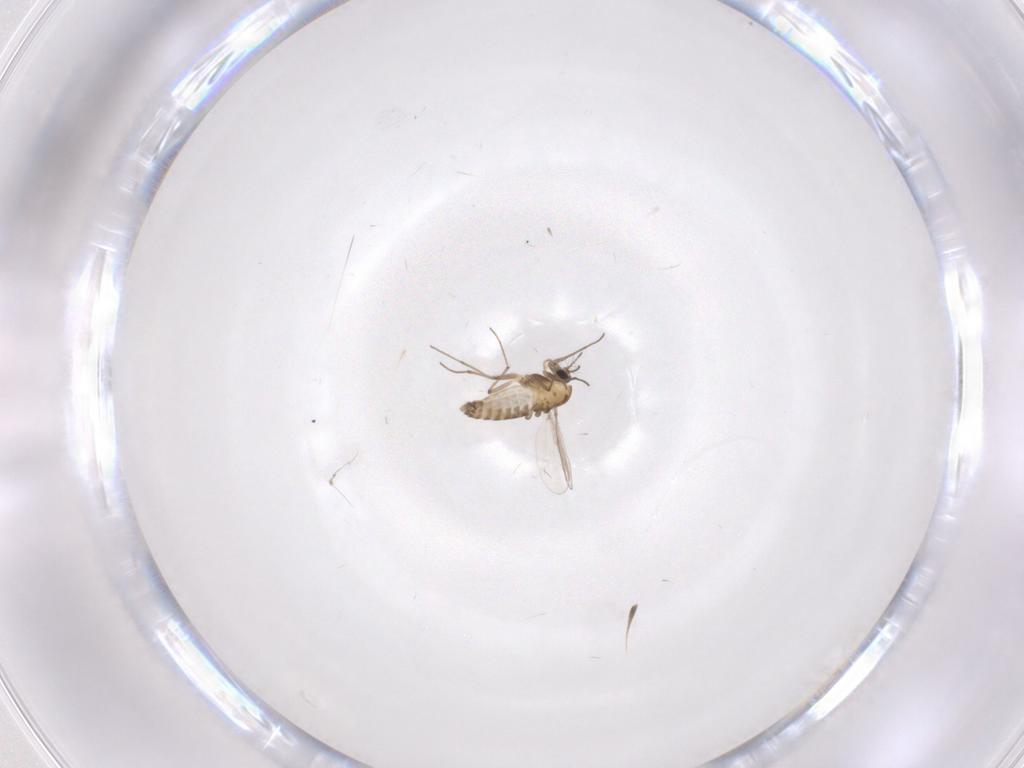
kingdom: Animalia
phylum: Arthropoda
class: Insecta
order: Diptera
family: Chironomidae
